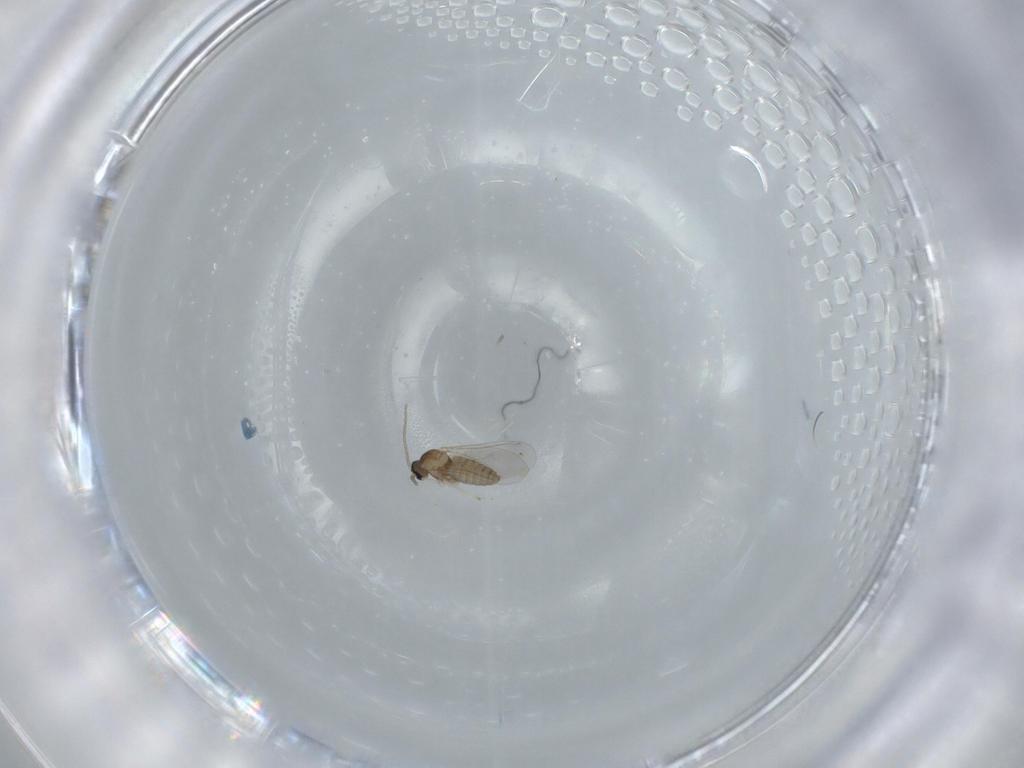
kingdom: Animalia
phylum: Arthropoda
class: Insecta
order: Diptera
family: Cecidomyiidae
